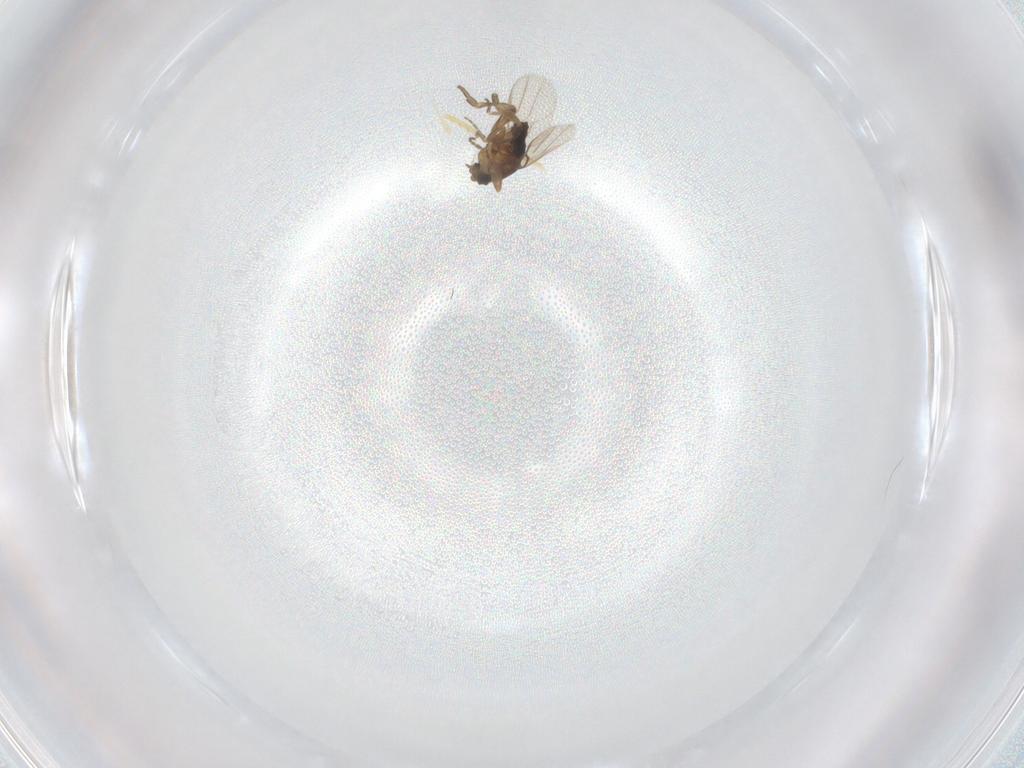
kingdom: Animalia
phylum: Arthropoda
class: Insecta
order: Diptera
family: Phoridae
